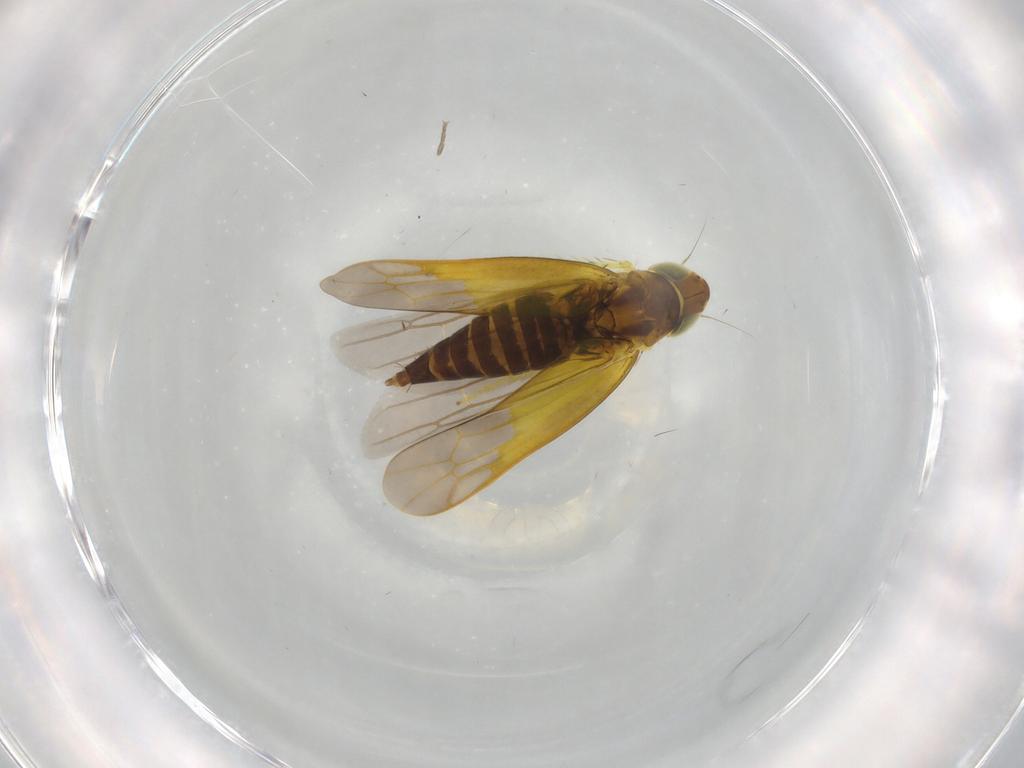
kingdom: Animalia
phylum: Arthropoda
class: Insecta
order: Hemiptera
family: Cicadellidae
